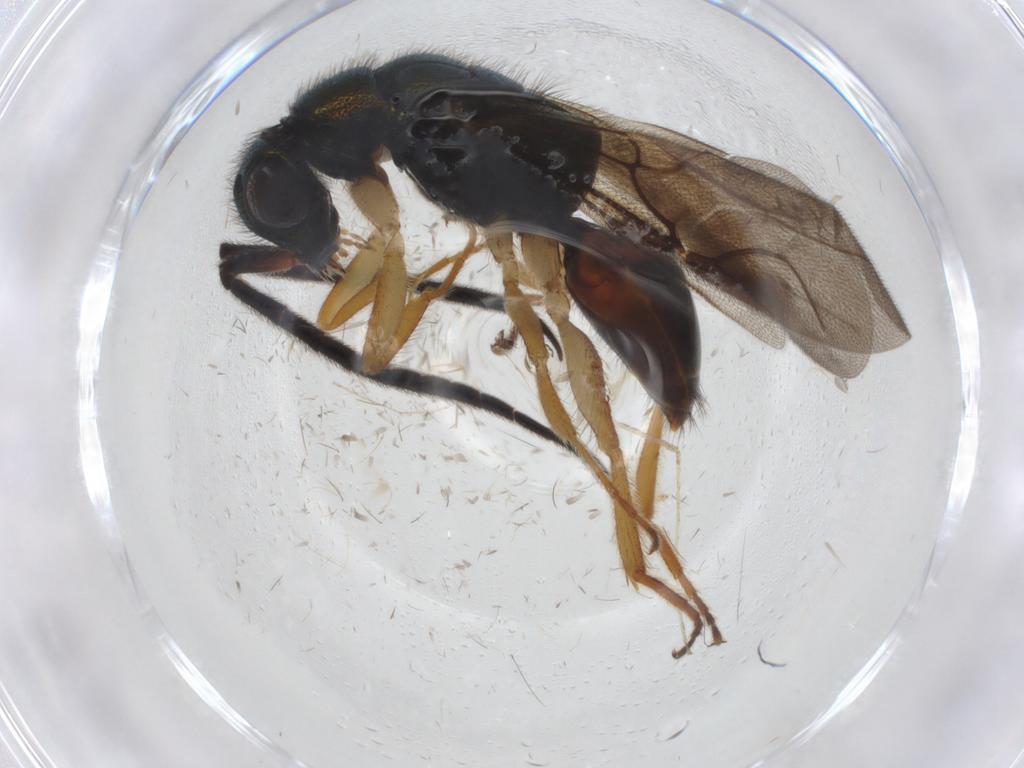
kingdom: Animalia
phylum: Arthropoda
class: Insecta
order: Hymenoptera
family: Chrysididae
